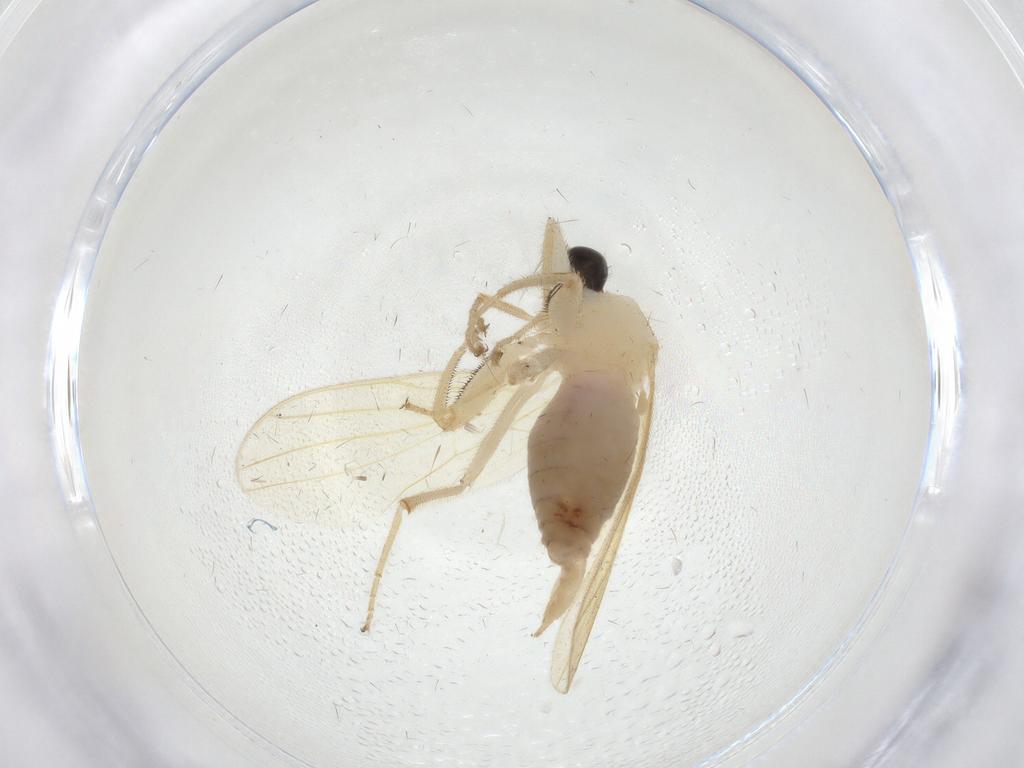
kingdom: Animalia
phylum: Arthropoda
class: Insecta
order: Diptera
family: Hybotidae
